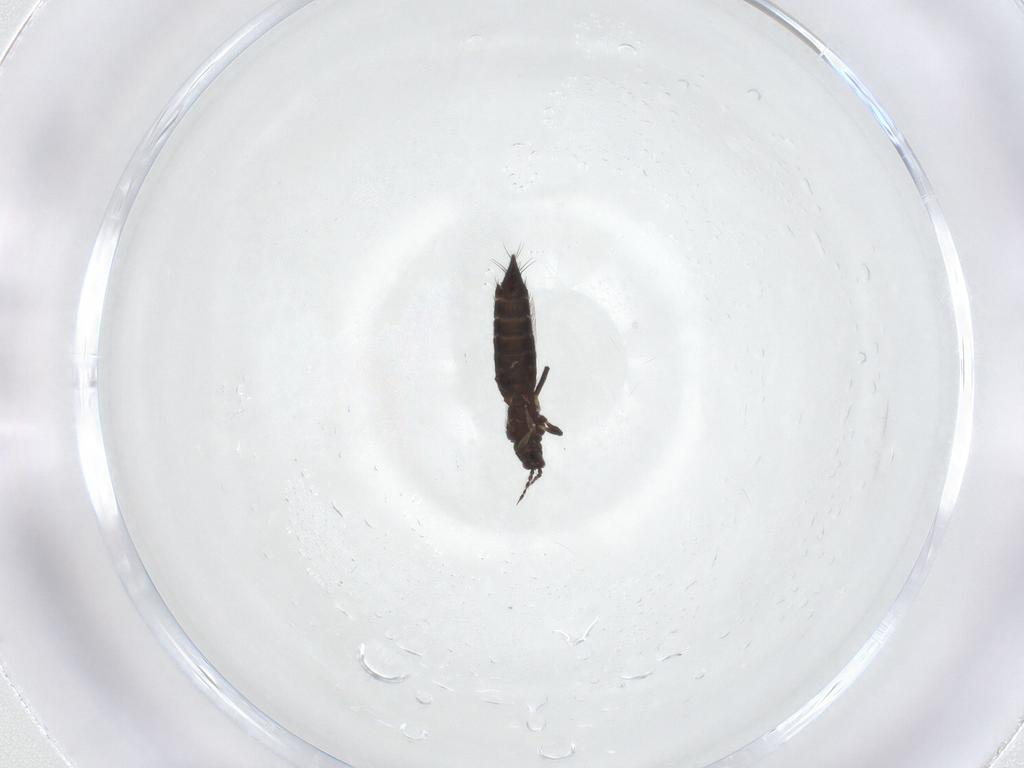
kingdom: Animalia
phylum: Arthropoda
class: Insecta
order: Thysanoptera
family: Thripidae
